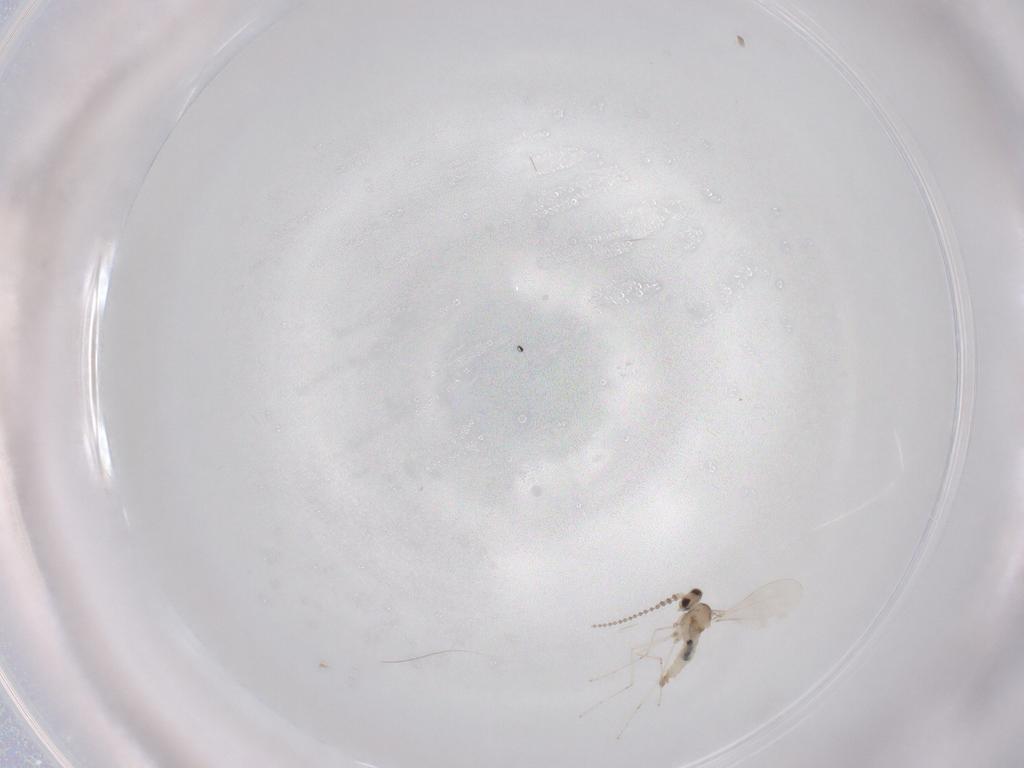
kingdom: Animalia
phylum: Arthropoda
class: Insecta
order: Diptera
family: Cecidomyiidae
